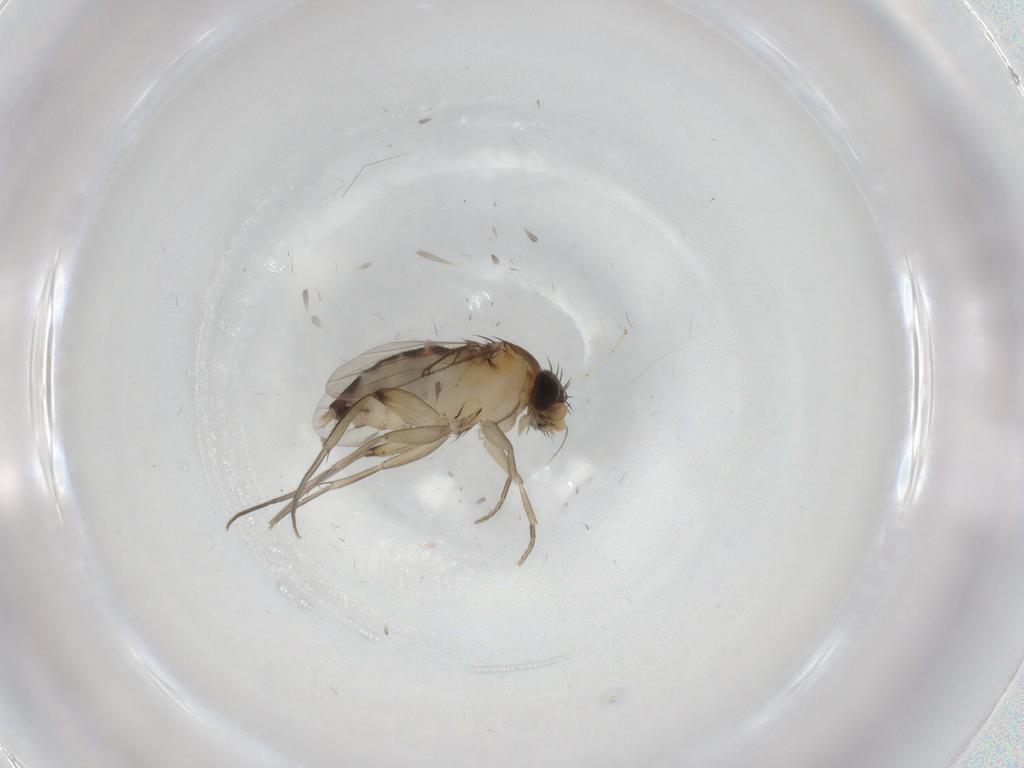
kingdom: Animalia
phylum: Arthropoda
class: Insecta
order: Diptera
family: Phoridae
